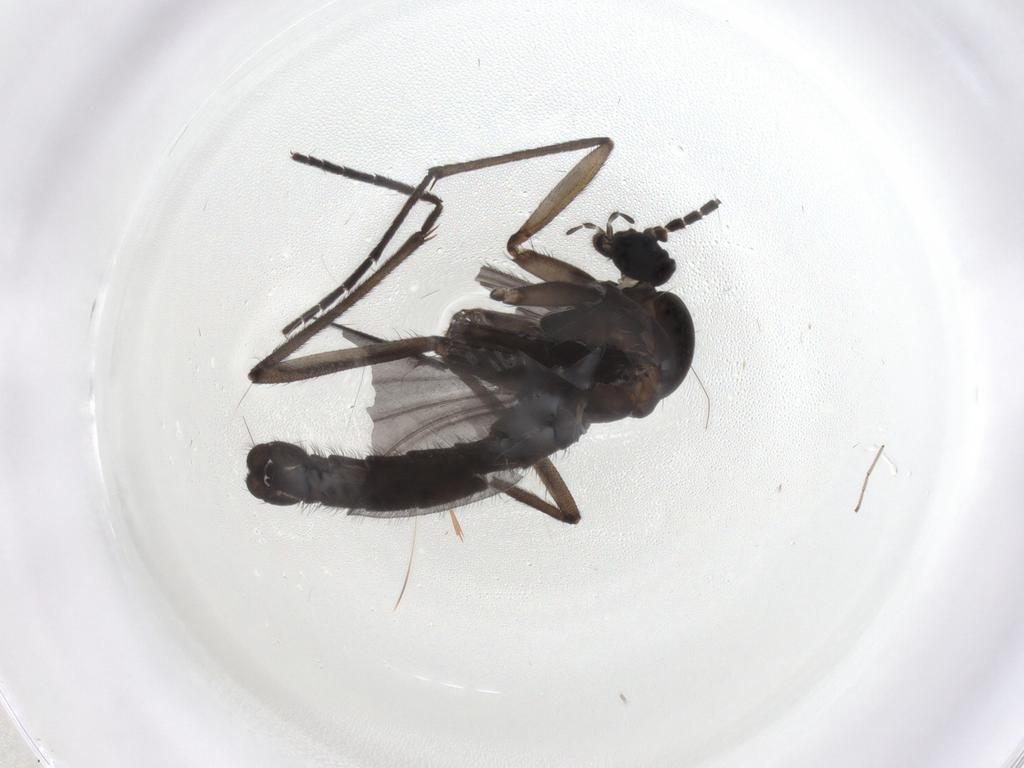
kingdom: Animalia
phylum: Arthropoda
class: Insecta
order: Diptera
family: Sciaridae
